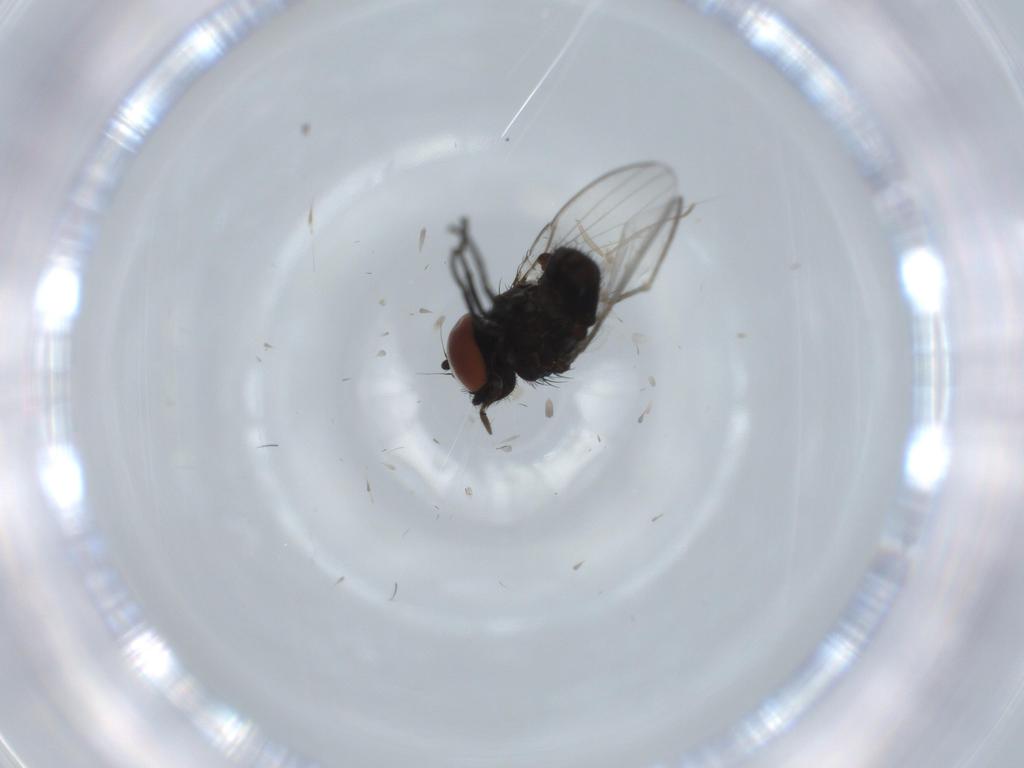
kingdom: Animalia
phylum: Arthropoda
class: Insecta
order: Diptera
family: Sciaridae
